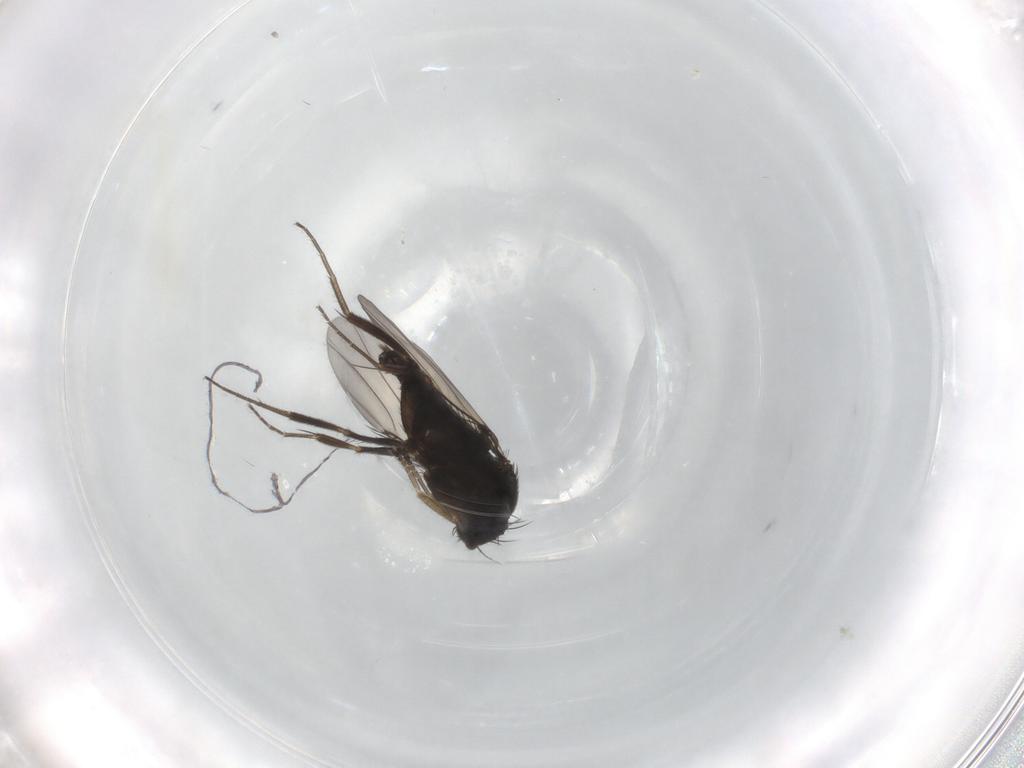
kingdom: Animalia
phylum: Arthropoda
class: Insecta
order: Diptera
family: Phoridae
